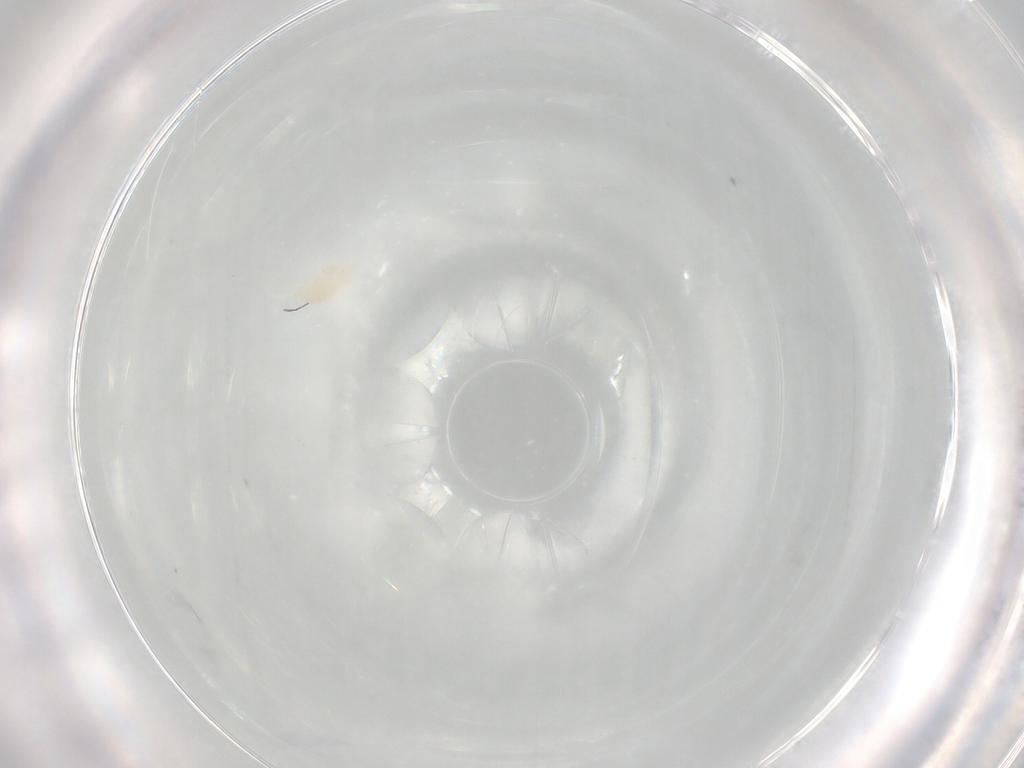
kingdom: Animalia
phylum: Arthropoda
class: Arachnida
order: Trombidiformes
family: Eupodidae
